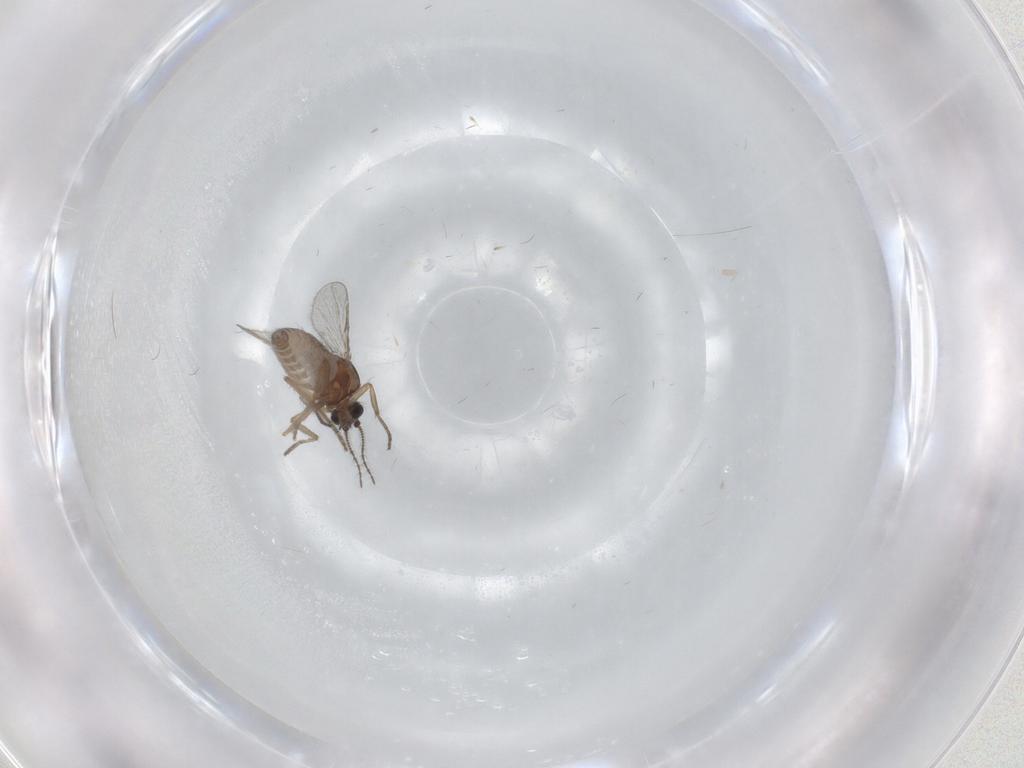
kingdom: Animalia
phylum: Arthropoda
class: Insecta
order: Diptera
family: Ceratopogonidae
